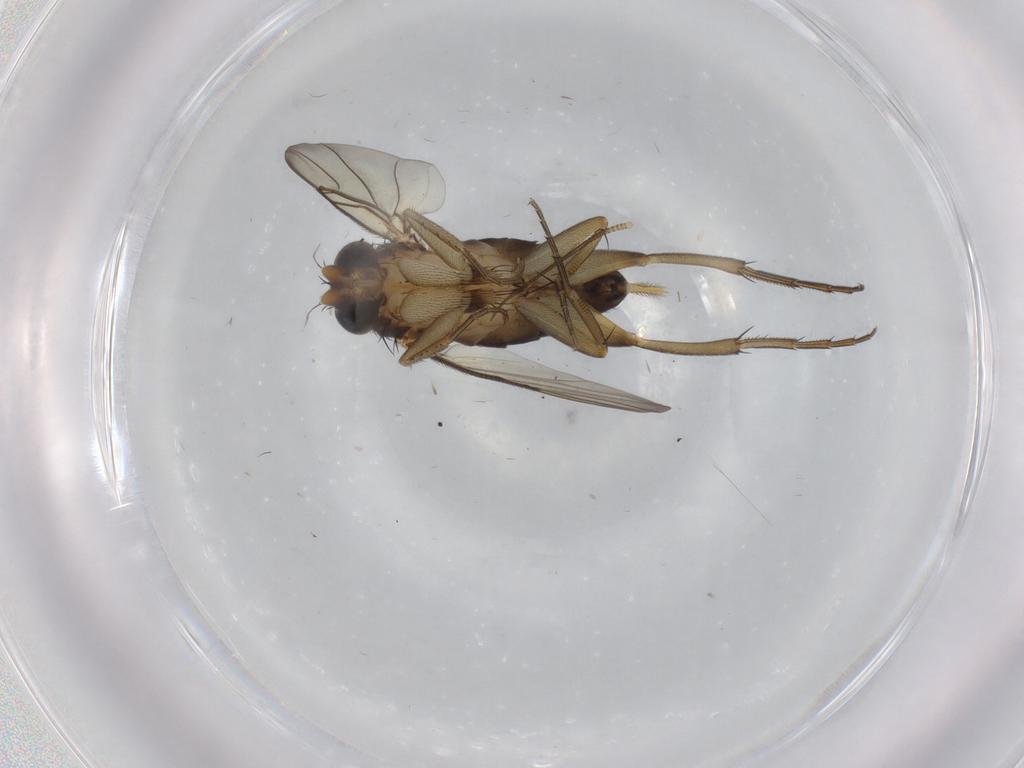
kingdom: Animalia
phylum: Arthropoda
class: Insecta
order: Diptera
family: Phoridae
